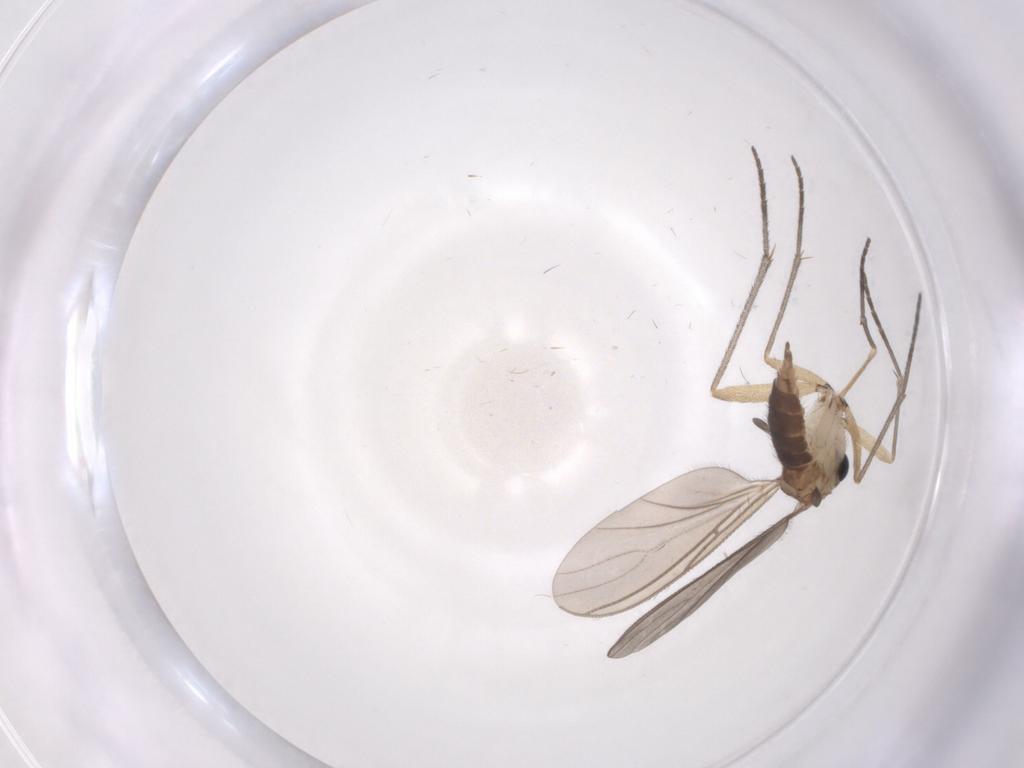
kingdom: Animalia
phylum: Arthropoda
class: Insecta
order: Diptera
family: Sciaridae
